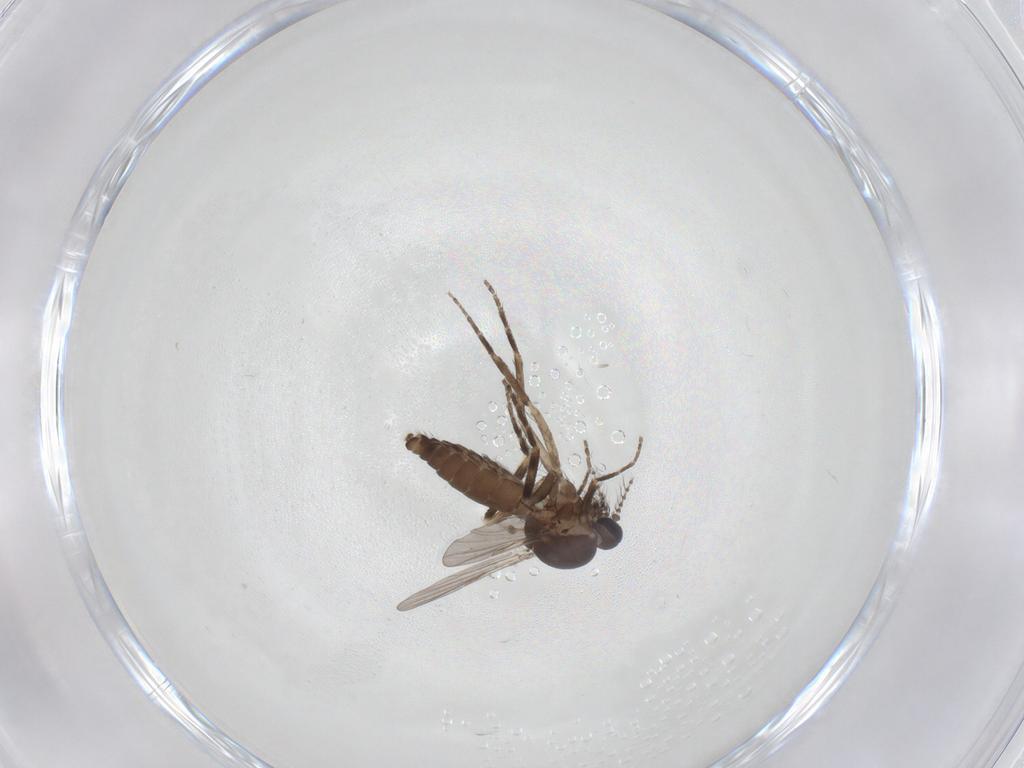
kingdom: Animalia
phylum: Arthropoda
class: Insecta
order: Diptera
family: Ceratopogonidae
